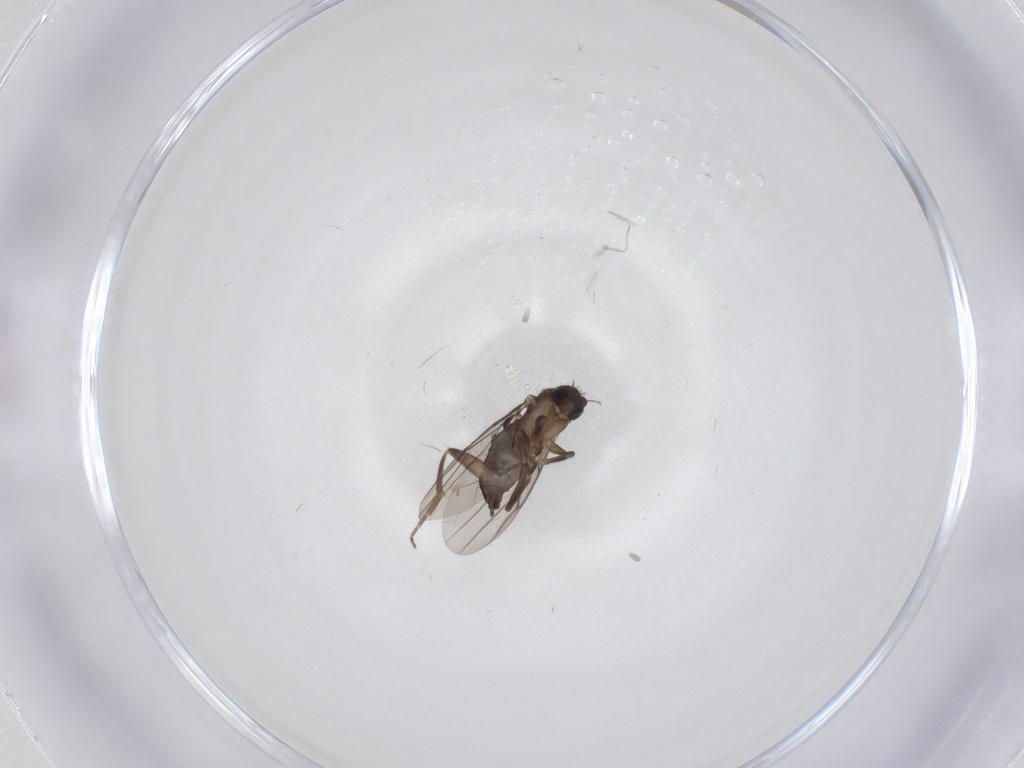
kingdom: Animalia
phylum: Arthropoda
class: Insecta
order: Diptera
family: Phoridae
